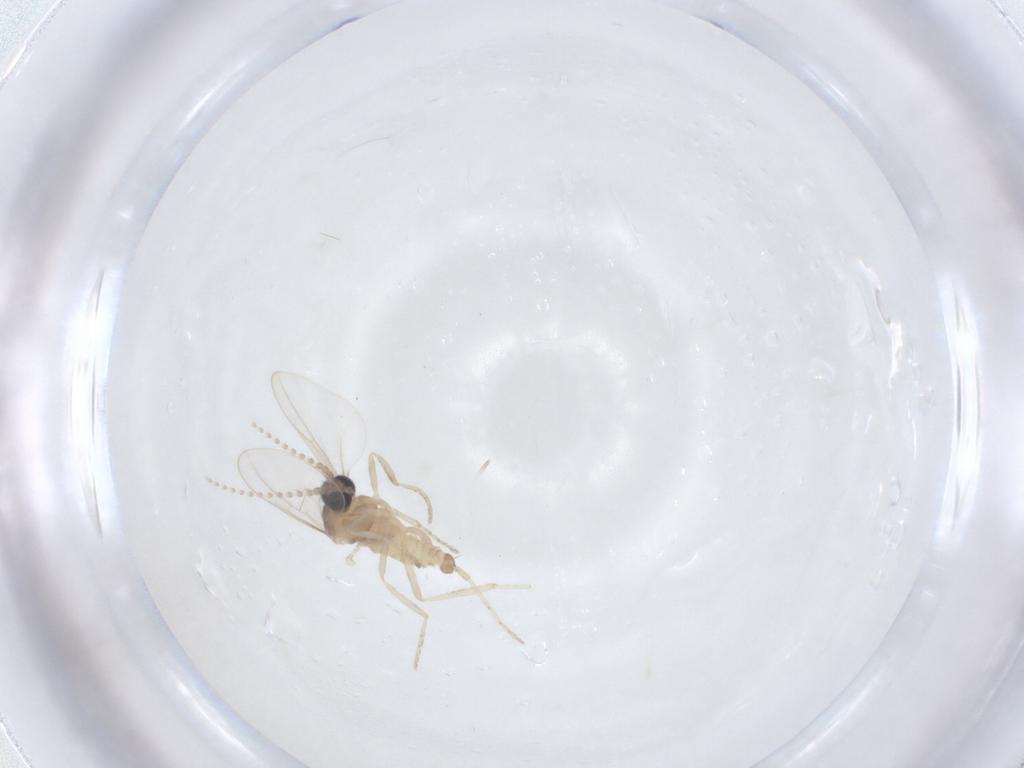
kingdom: Animalia
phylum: Arthropoda
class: Insecta
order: Diptera
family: Cecidomyiidae
